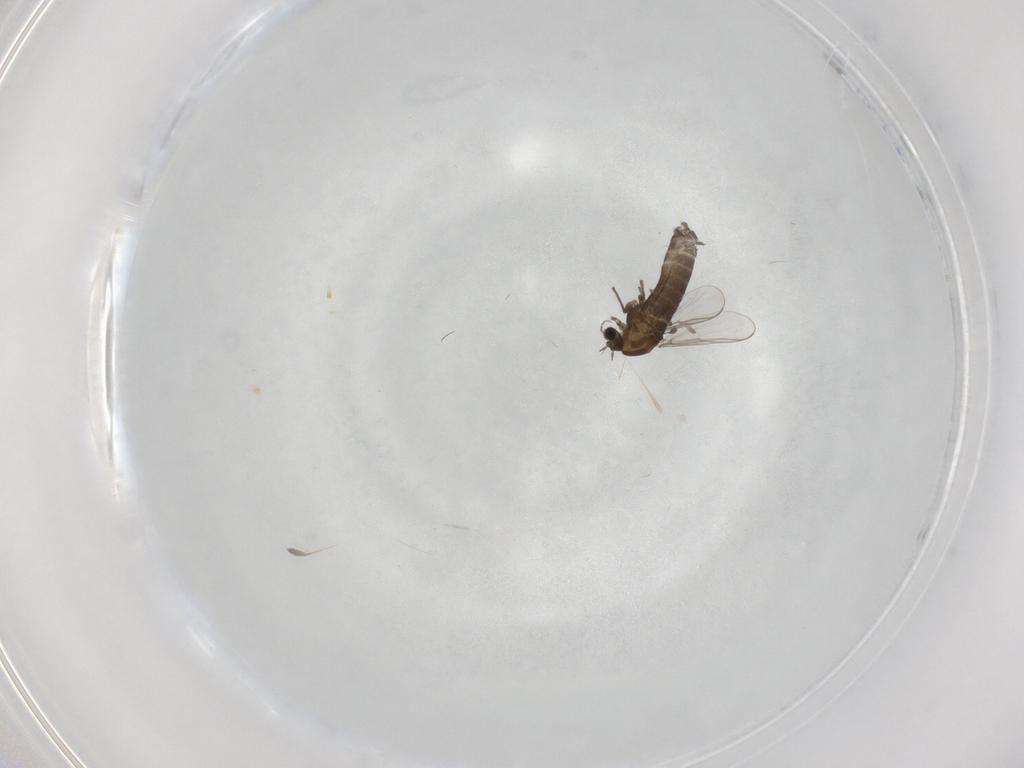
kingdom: Animalia
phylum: Arthropoda
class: Insecta
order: Diptera
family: Chironomidae
